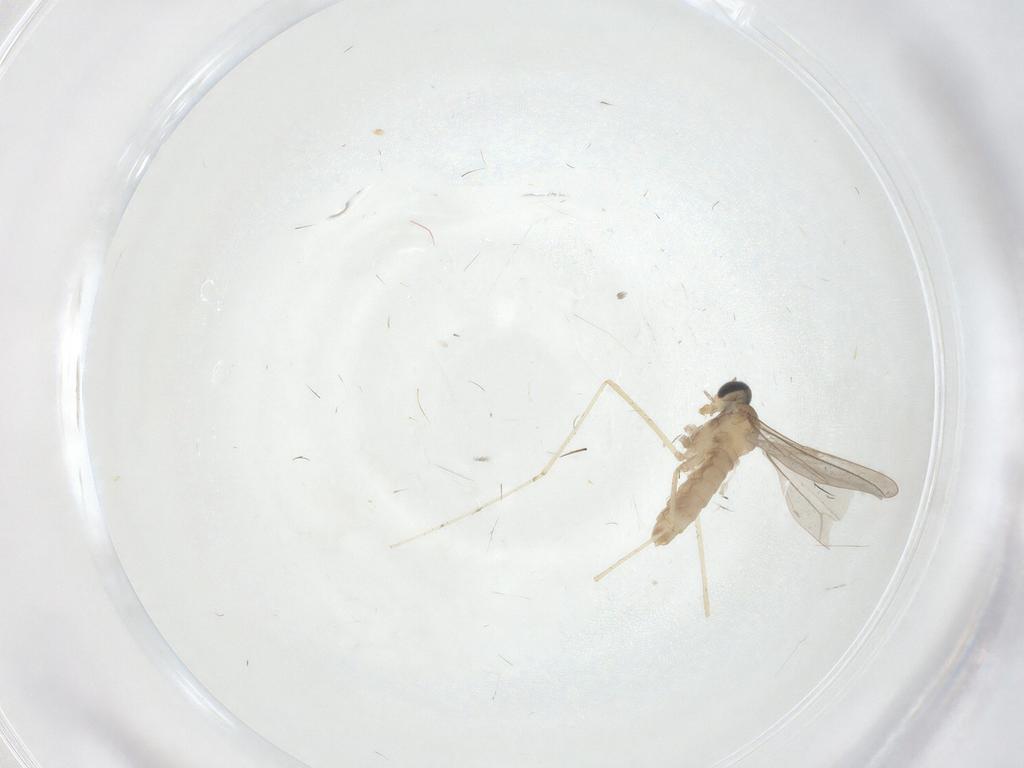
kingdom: Animalia
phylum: Arthropoda
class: Insecta
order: Diptera
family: Cecidomyiidae
